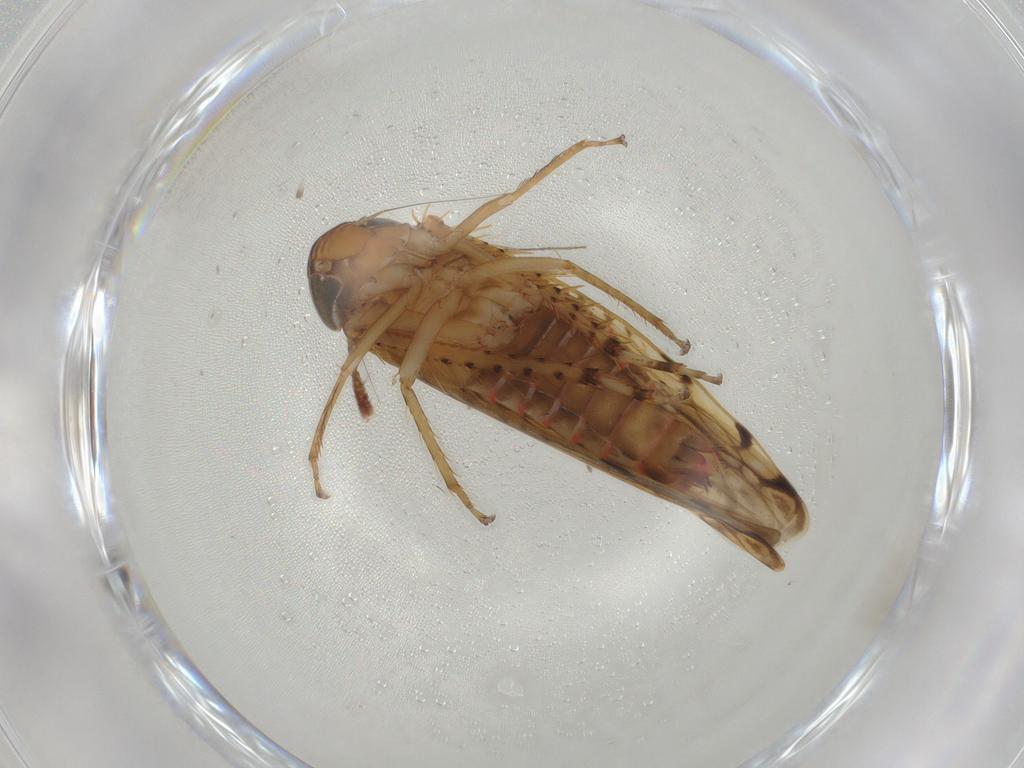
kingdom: Animalia
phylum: Arthropoda
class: Insecta
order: Hemiptera
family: Cicadellidae
